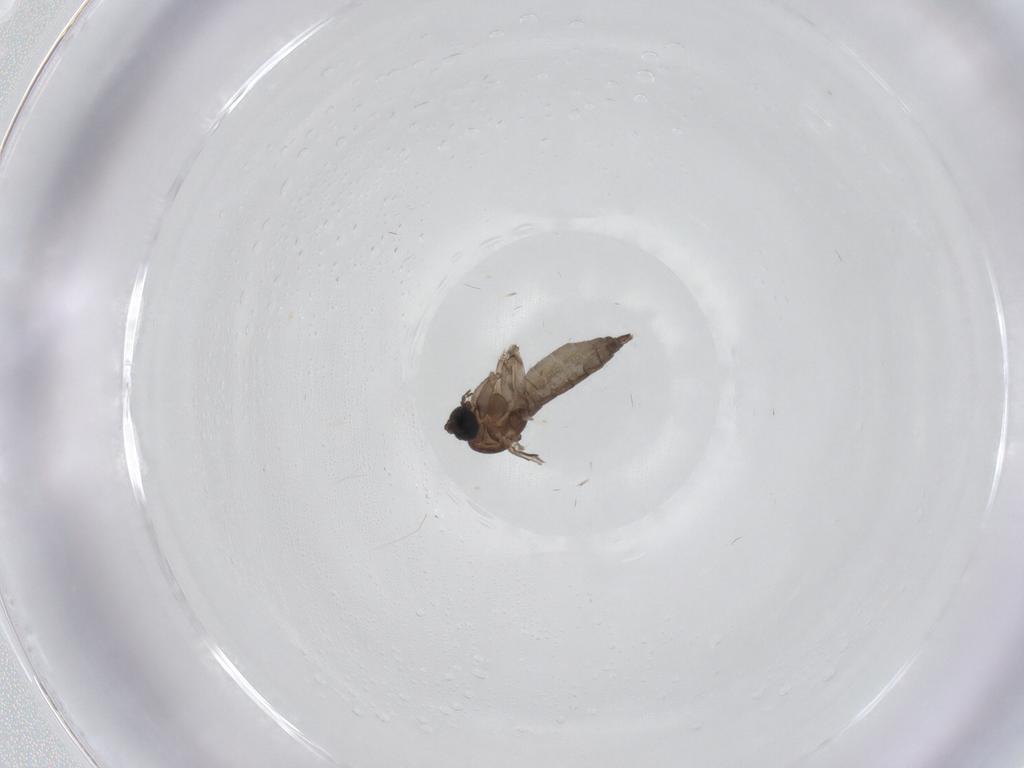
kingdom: Animalia
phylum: Arthropoda
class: Insecta
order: Diptera
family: Sciaridae
